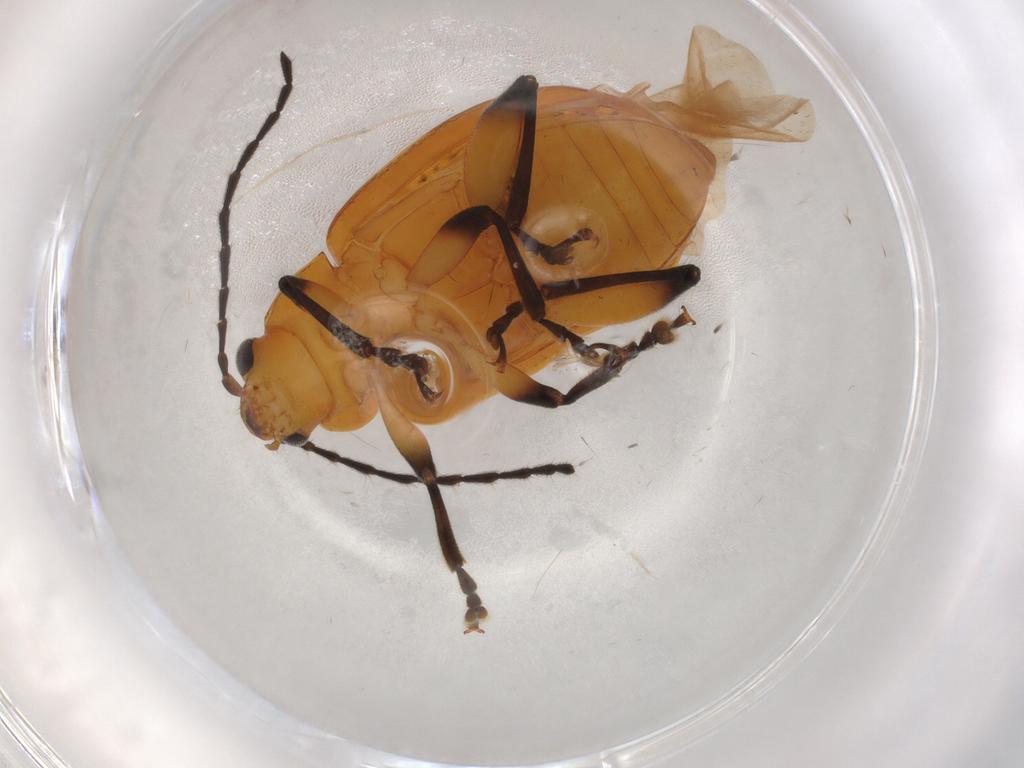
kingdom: Animalia
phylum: Arthropoda
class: Insecta
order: Coleoptera
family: Chrysomelidae
